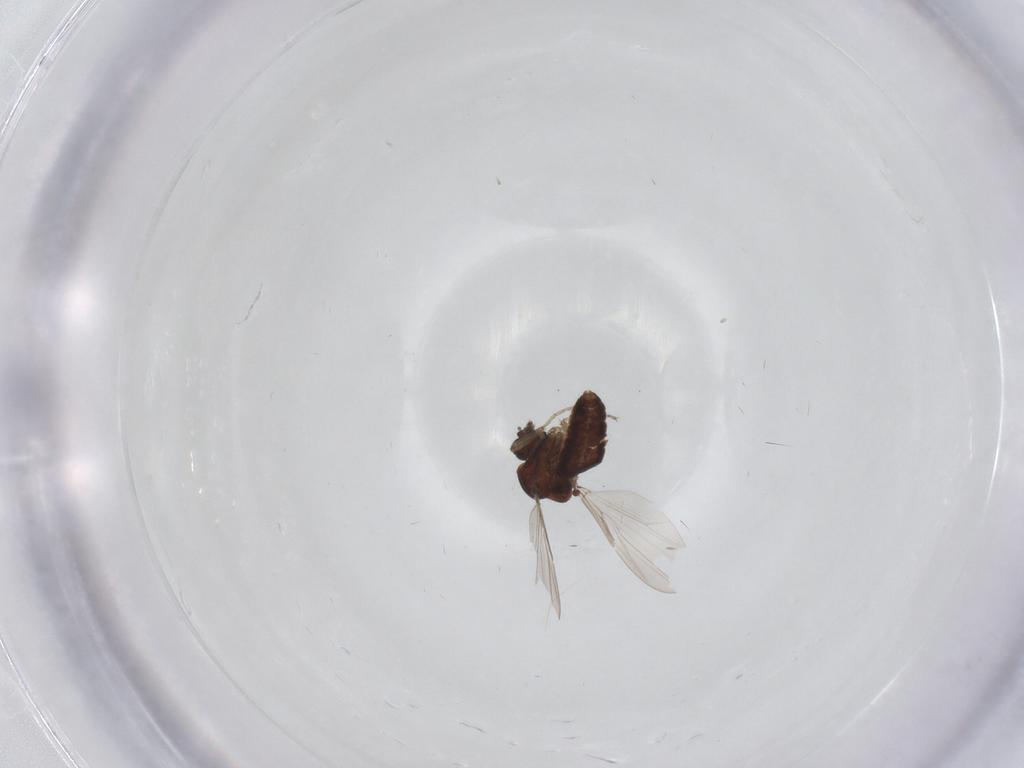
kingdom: Animalia
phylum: Arthropoda
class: Insecta
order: Diptera
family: Ceratopogonidae
